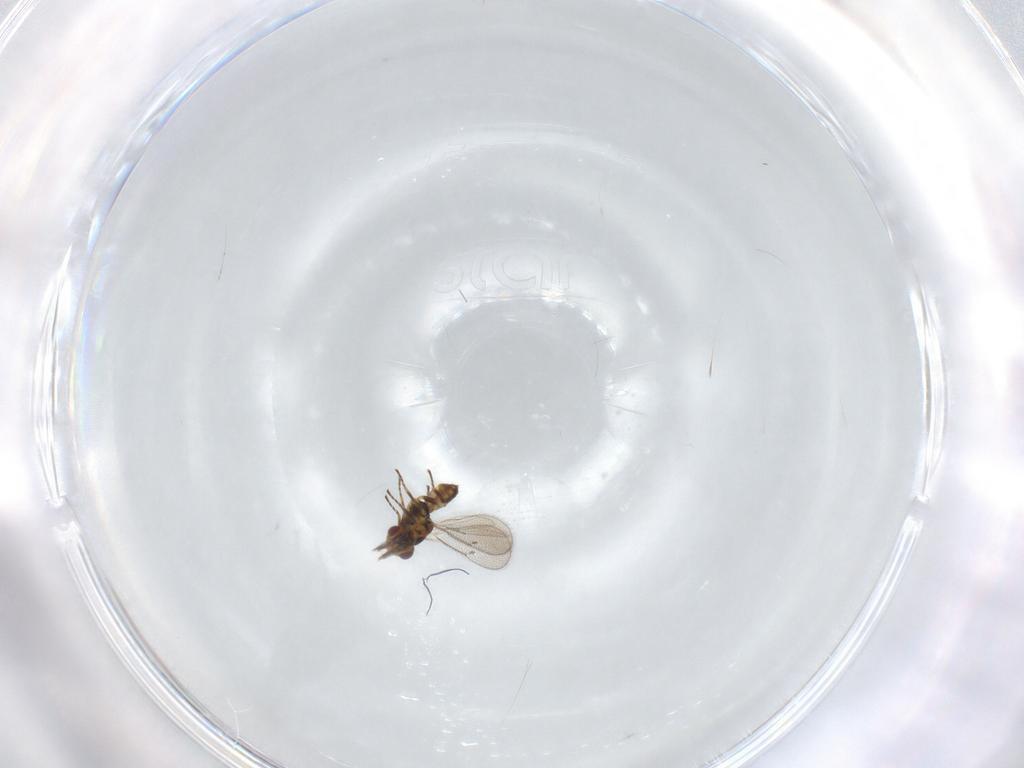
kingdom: Animalia
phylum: Arthropoda
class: Insecta
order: Hymenoptera
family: Eulophidae
